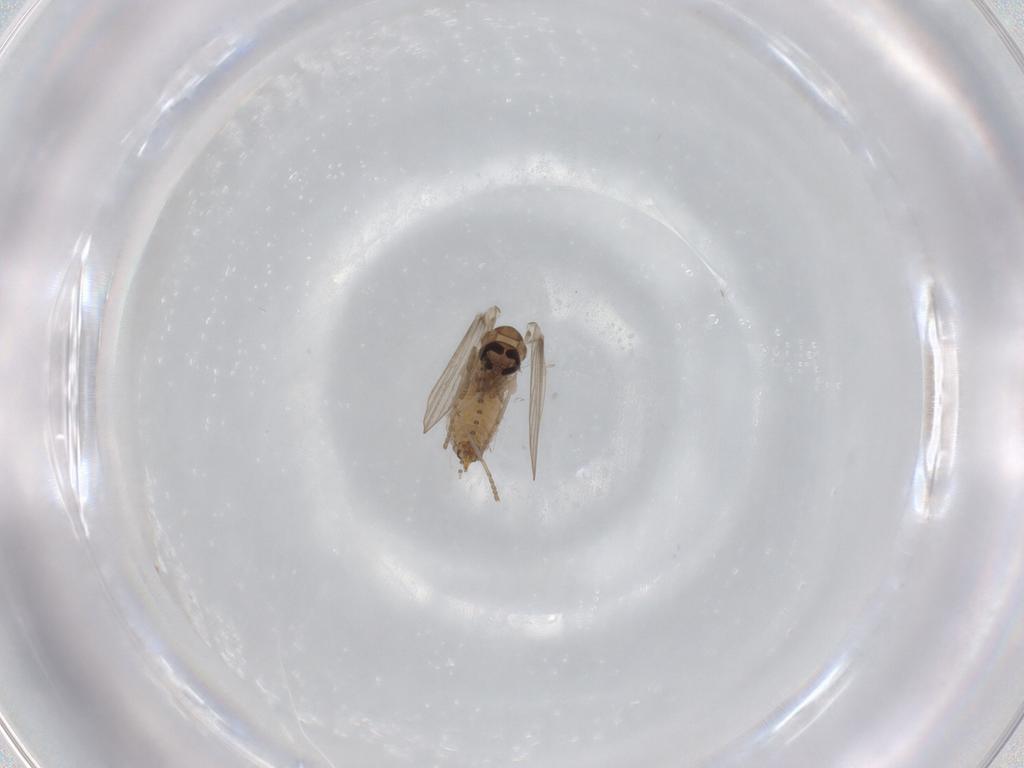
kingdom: Animalia
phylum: Arthropoda
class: Insecta
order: Diptera
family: Psychodidae
